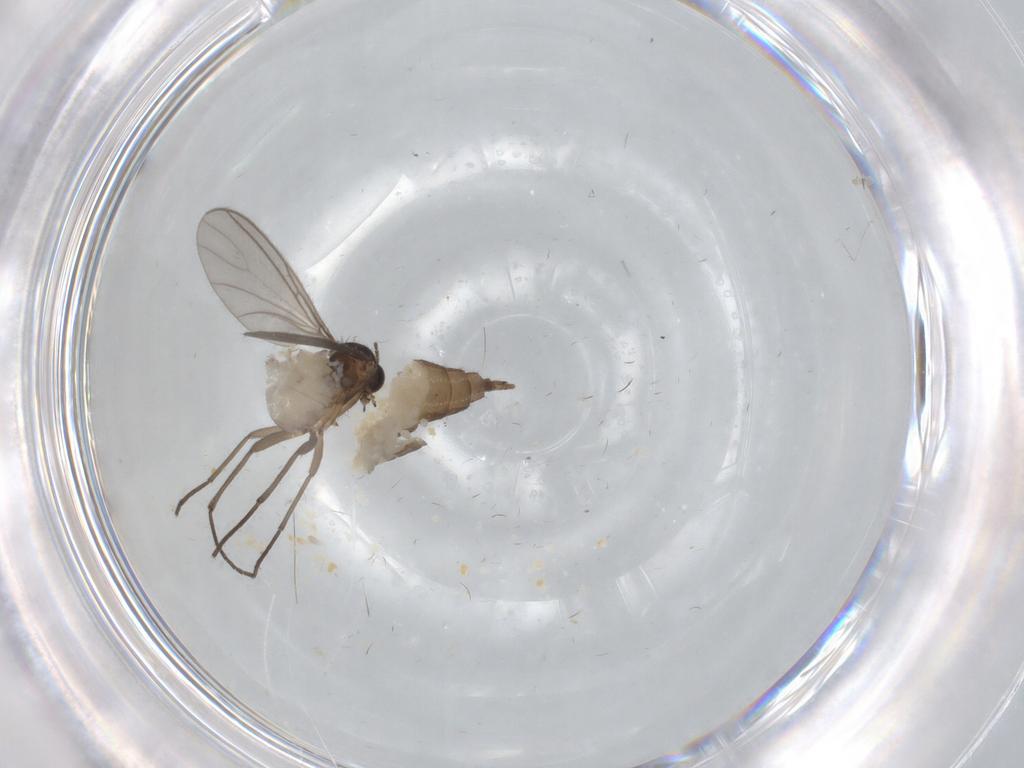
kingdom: Animalia
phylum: Arthropoda
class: Insecta
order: Diptera
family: Sciaridae
